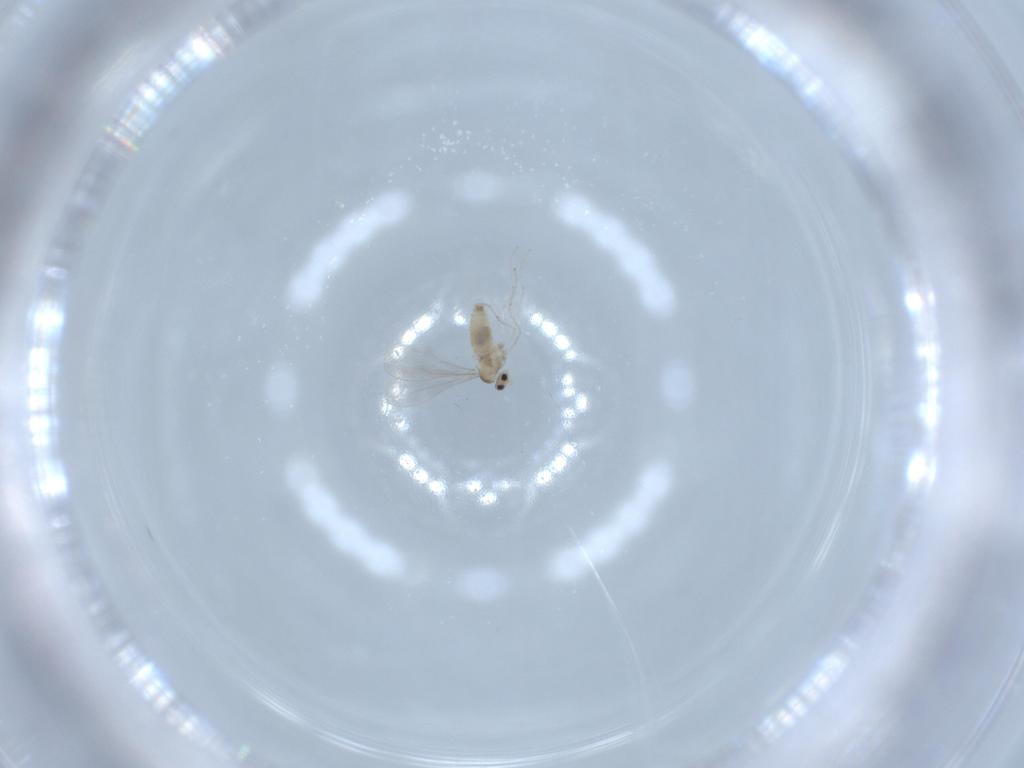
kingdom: Animalia
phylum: Arthropoda
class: Insecta
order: Diptera
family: Cecidomyiidae
